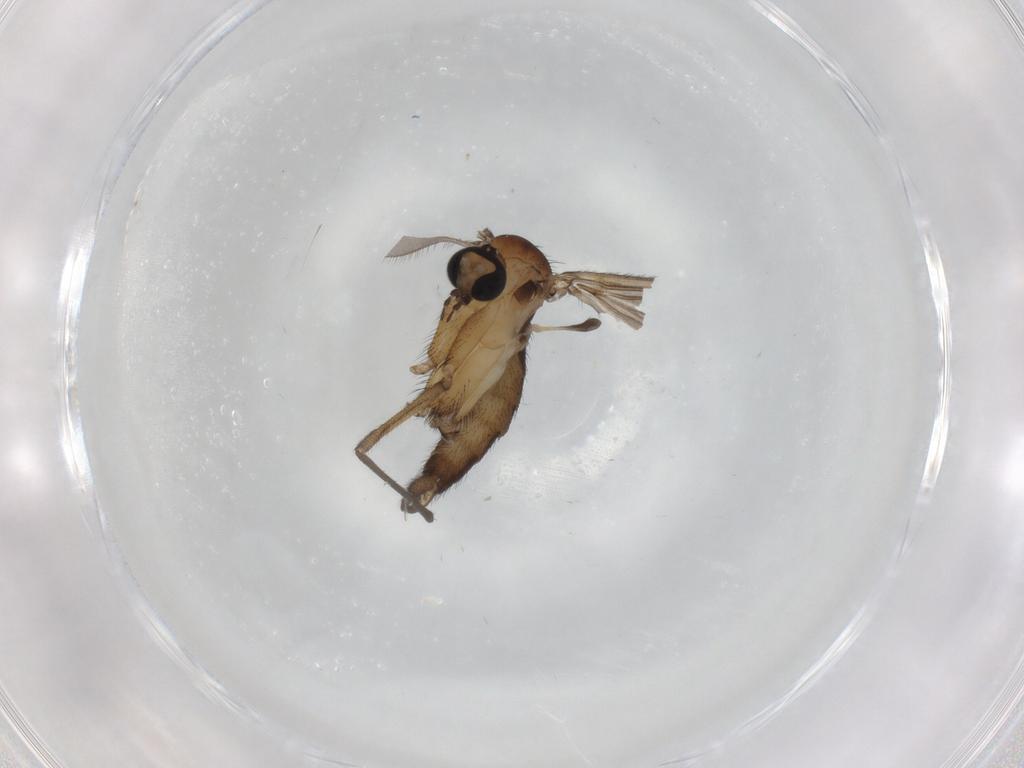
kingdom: Animalia
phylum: Arthropoda
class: Insecta
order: Diptera
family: Sciaridae
